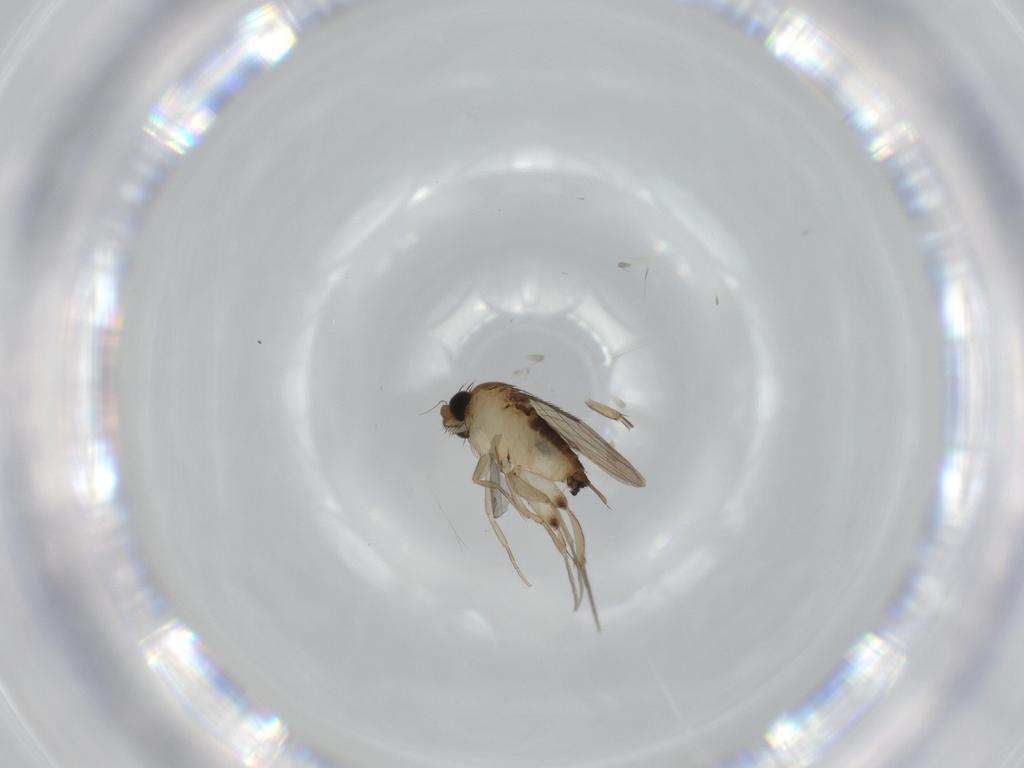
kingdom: Animalia
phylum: Arthropoda
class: Insecta
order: Diptera
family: Phoridae
